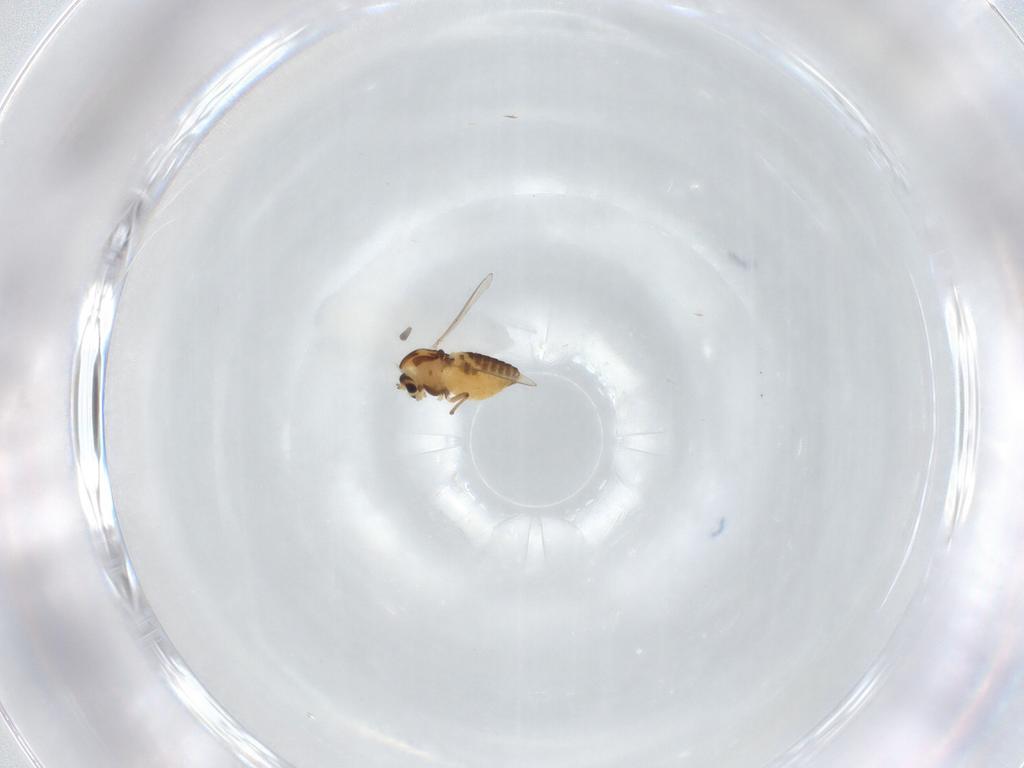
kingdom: Animalia
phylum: Arthropoda
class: Insecta
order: Diptera
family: Chironomidae
